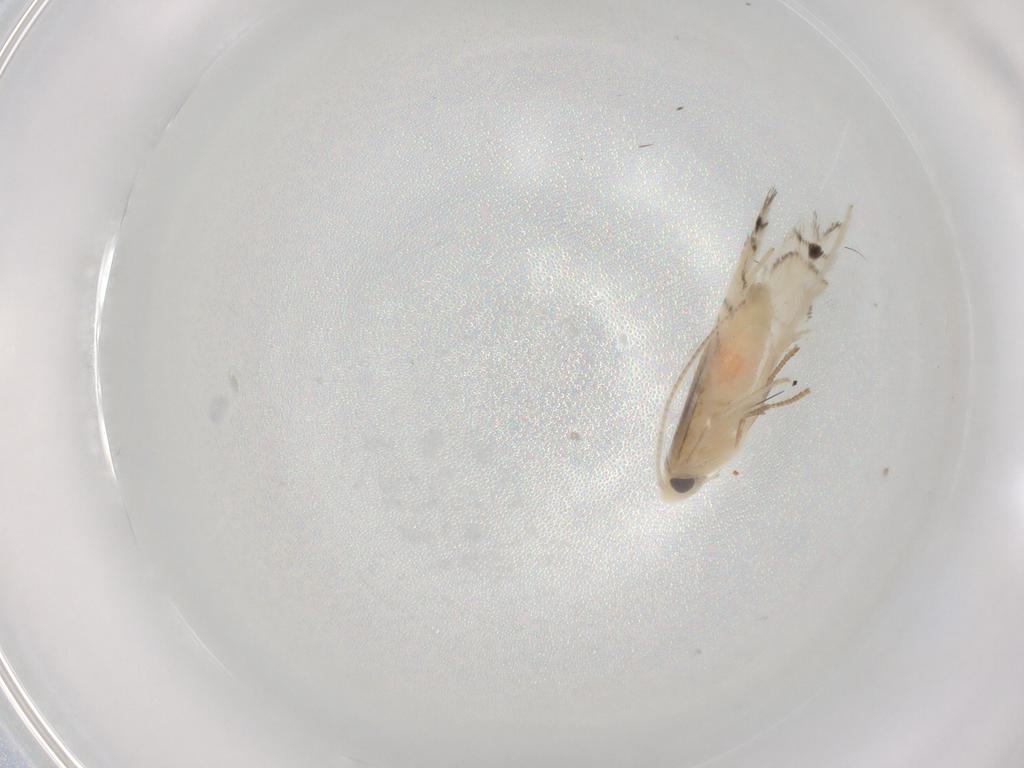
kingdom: Animalia
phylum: Arthropoda
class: Insecta
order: Lepidoptera
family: Gracillariidae
